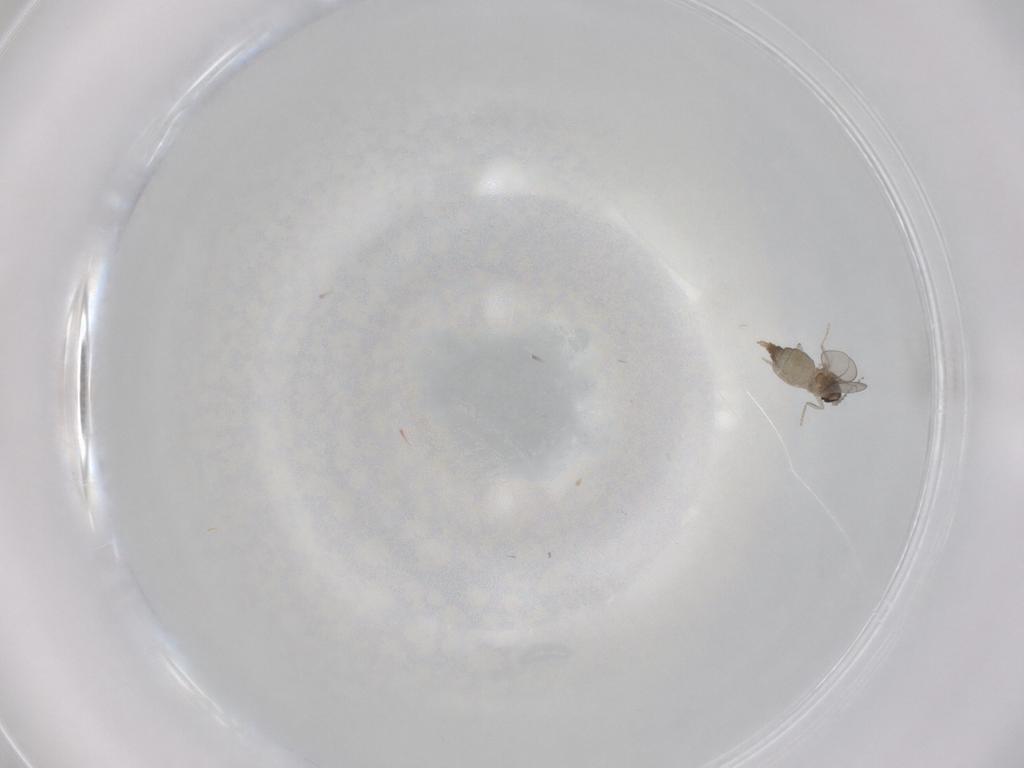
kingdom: Animalia
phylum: Arthropoda
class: Insecta
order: Diptera
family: Cecidomyiidae
